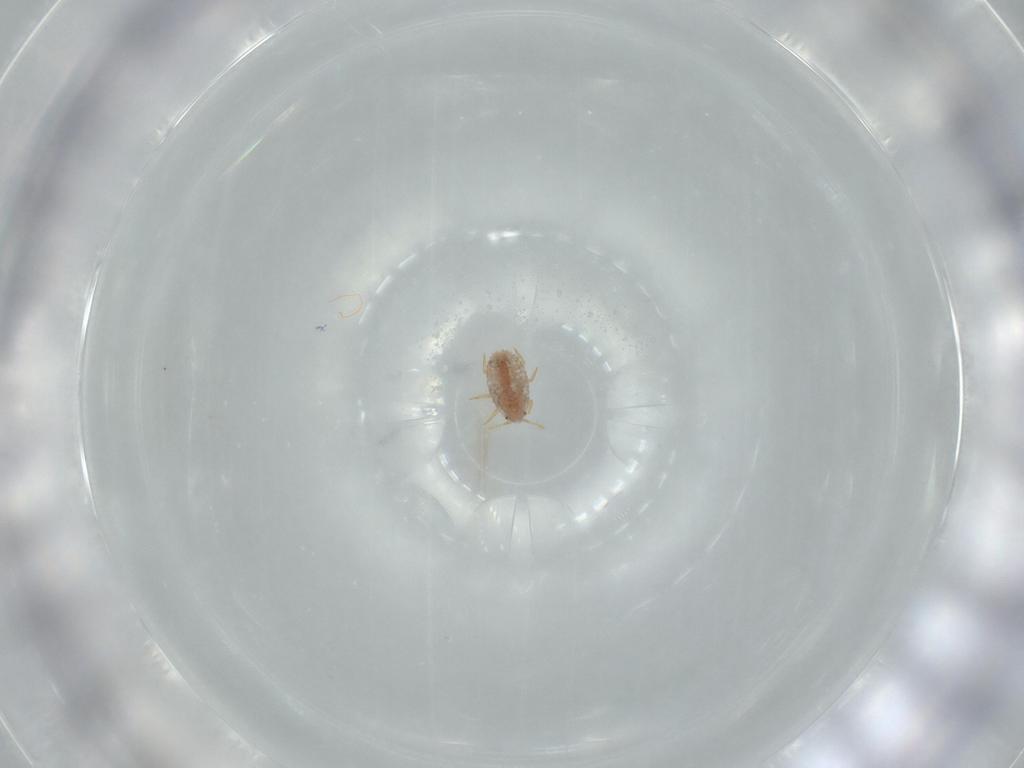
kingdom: Animalia
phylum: Arthropoda
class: Insecta
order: Hemiptera
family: Pseudococcidae
